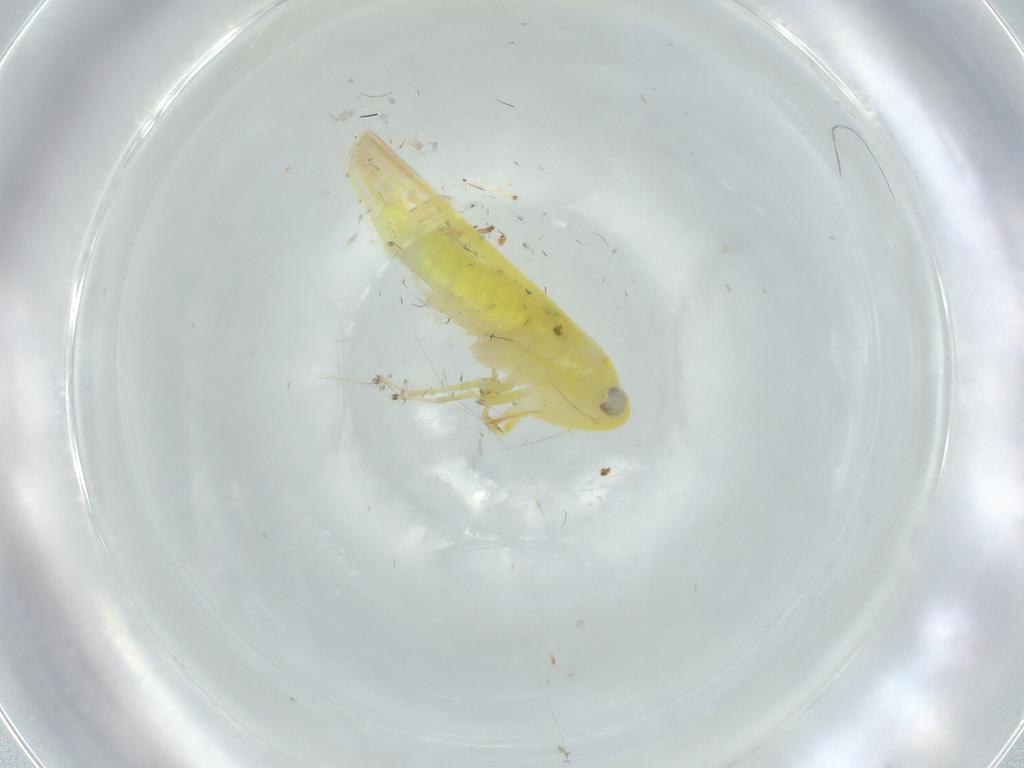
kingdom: Animalia
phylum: Arthropoda
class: Insecta
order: Hemiptera
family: Cicadellidae
